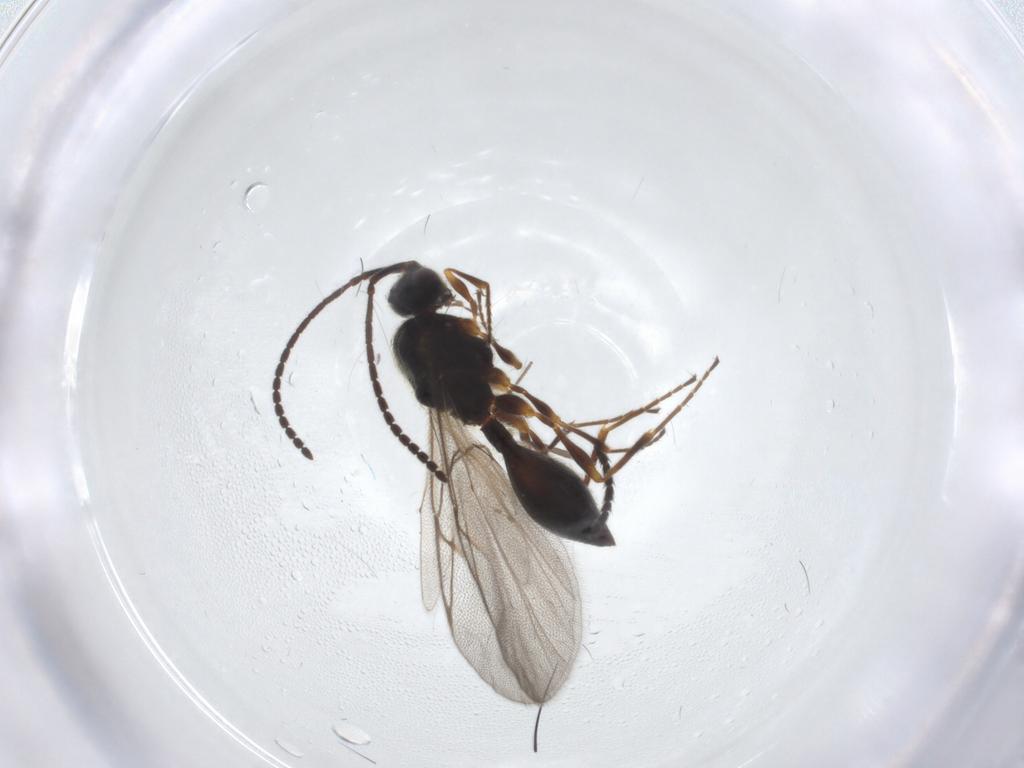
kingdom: Animalia
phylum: Arthropoda
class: Insecta
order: Hymenoptera
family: Diapriidae
